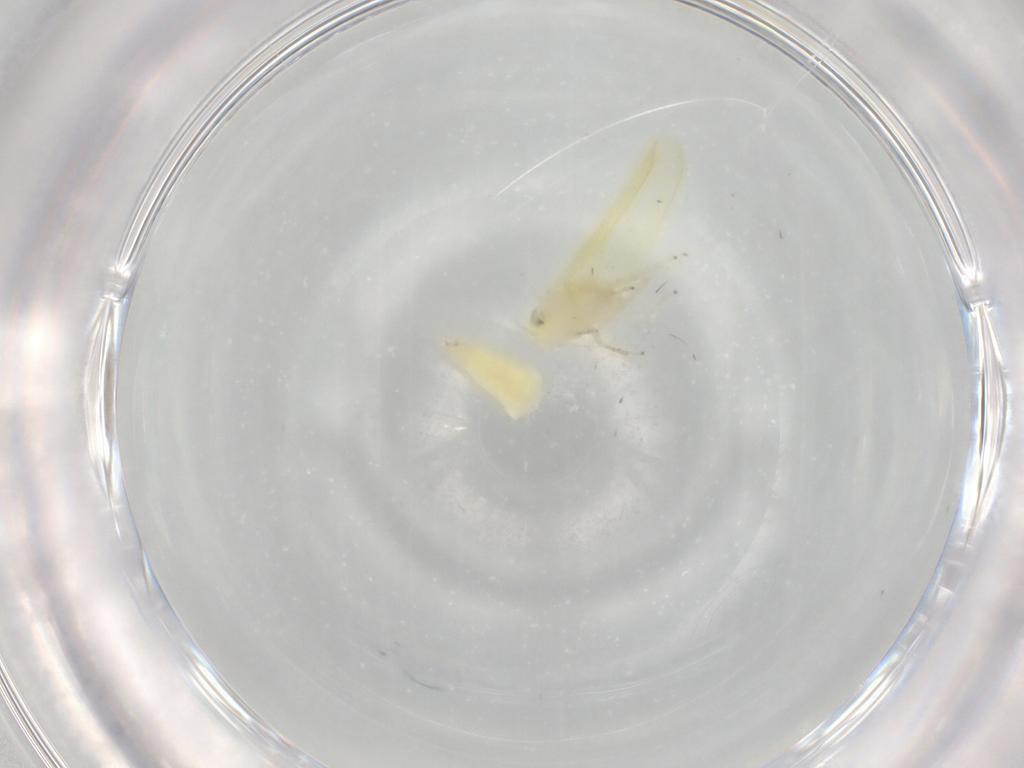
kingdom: Animalia
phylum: Arthropoda
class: Insecta
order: Hemiptera
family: Cicadellidae
